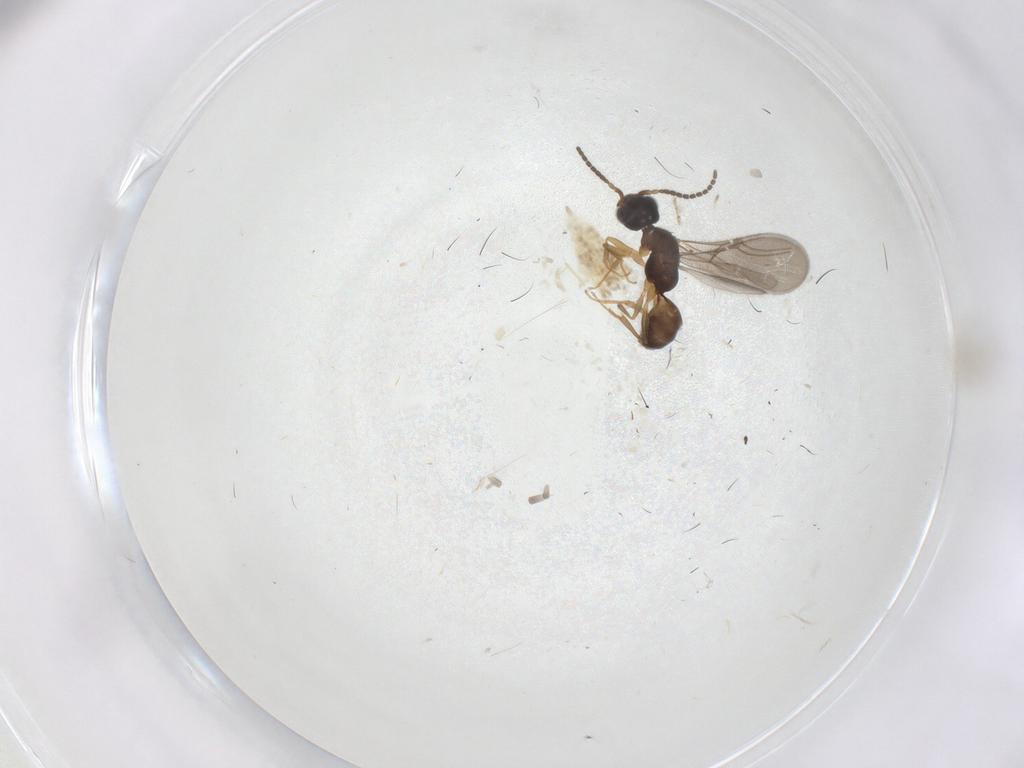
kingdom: Animalia
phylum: Arthropoda
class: Insecta
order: Hymenoptera
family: Crabronidae
